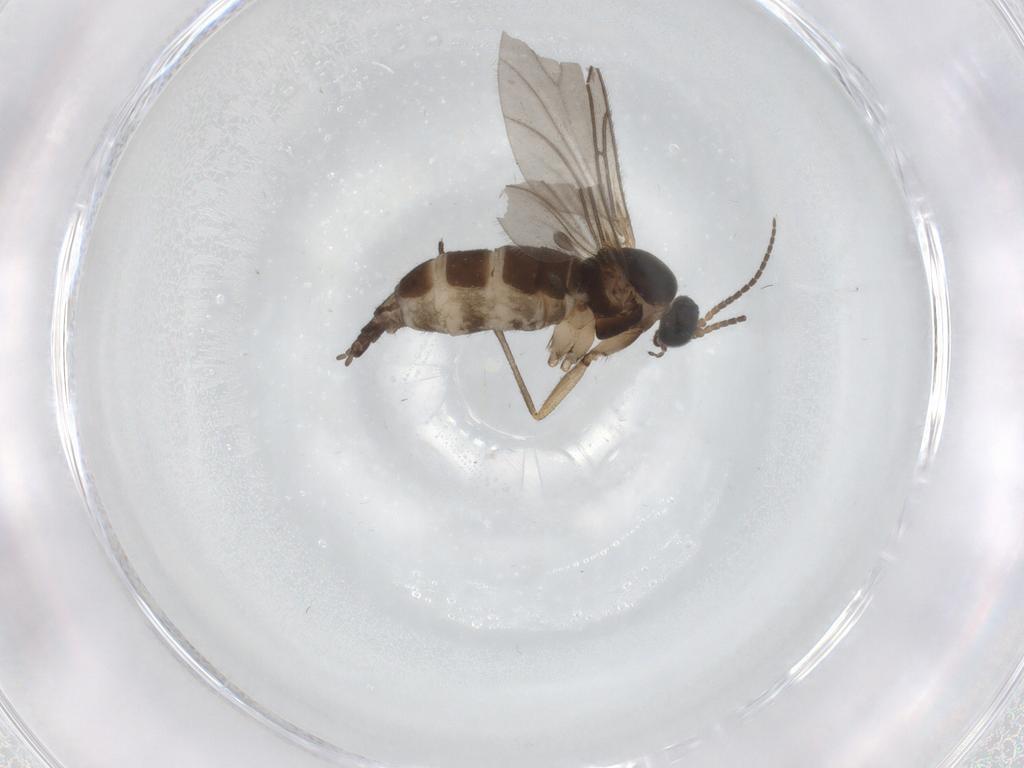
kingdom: Animalia
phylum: Arthropoda
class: Insecta
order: Diptera
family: Sciaridae
